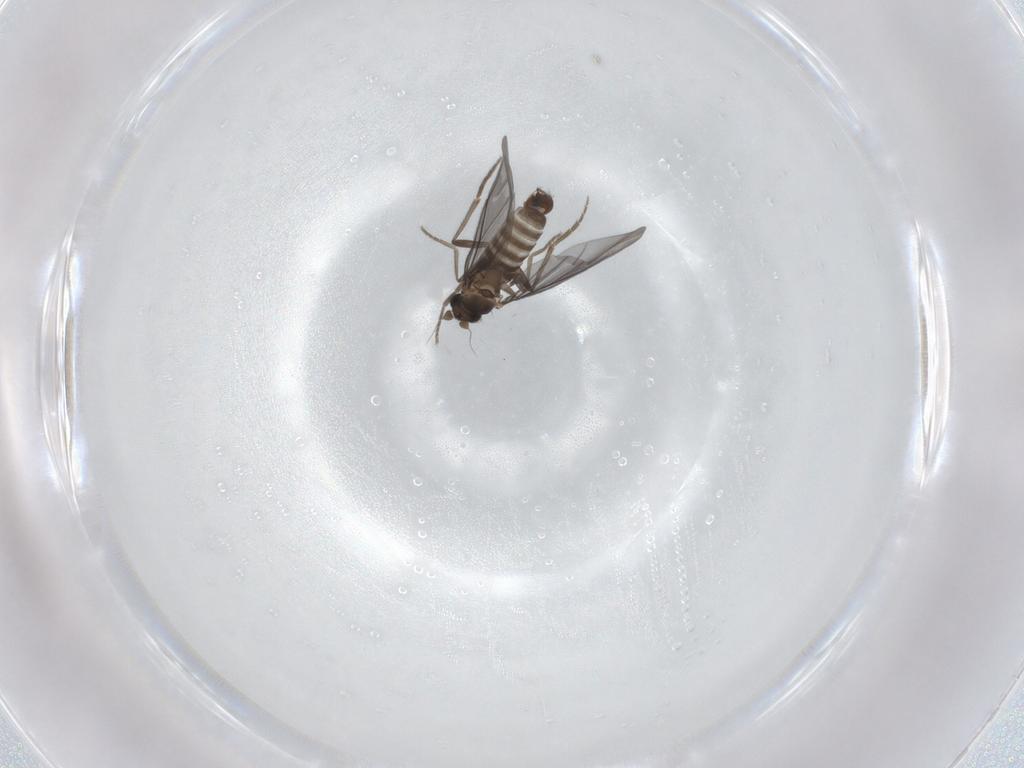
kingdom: Animalia
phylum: Arthropoda
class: Insecta
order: Diptera
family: Phoridae
